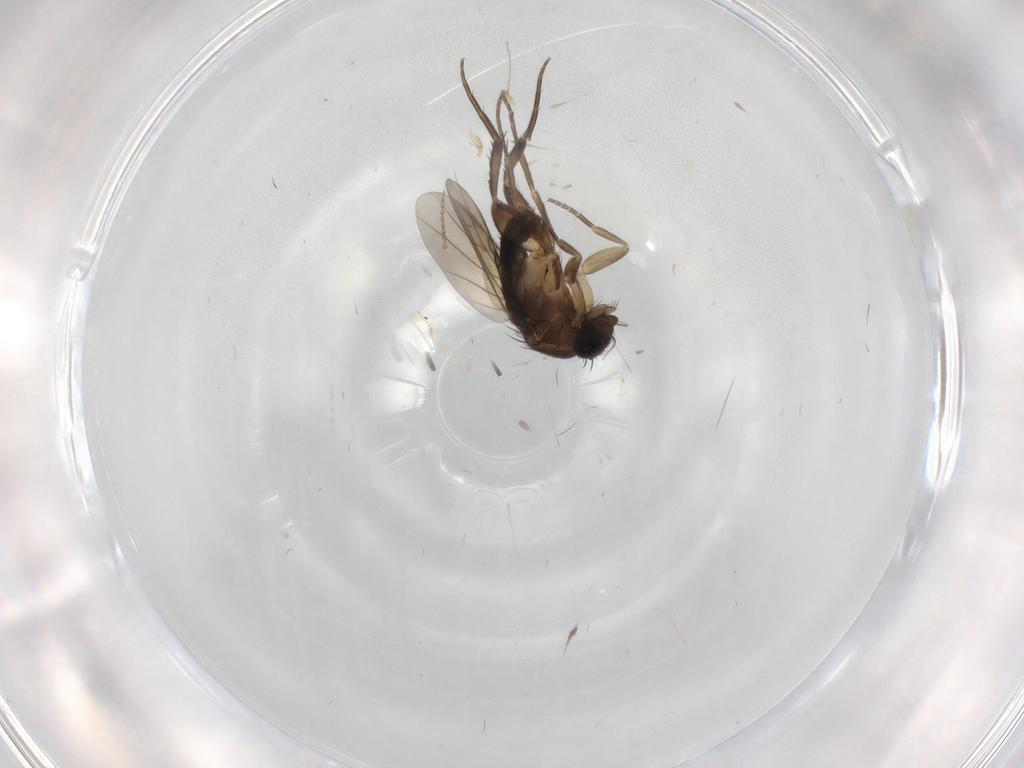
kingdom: Animalia
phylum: Arthropoda
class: Insecta
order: Diptera
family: Phoridae
